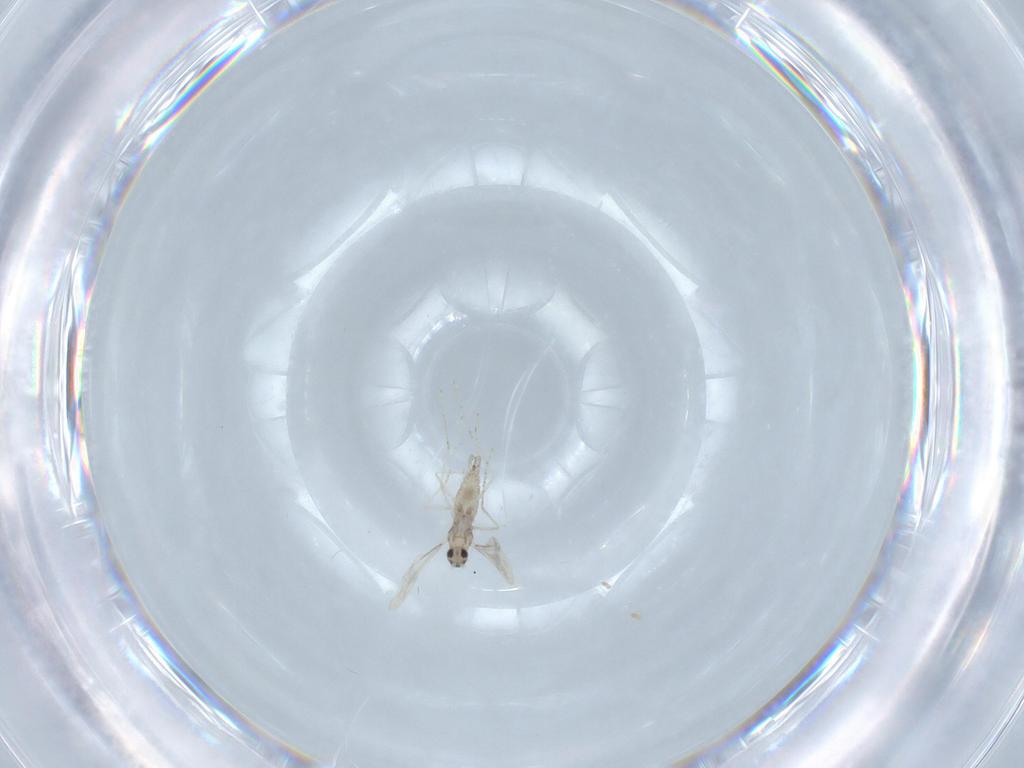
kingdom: Animalia
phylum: Arthropoda
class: Insecta
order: Diptera
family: Cecidomyiidae
